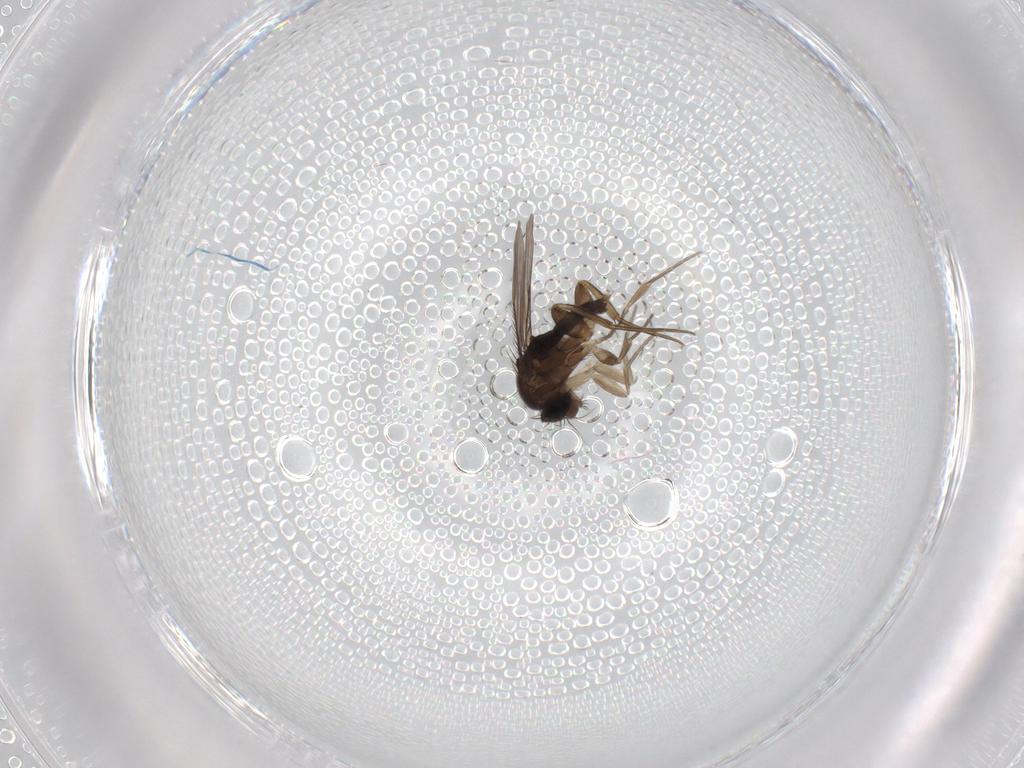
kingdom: Animalia
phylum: Arthropoda
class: Insecta
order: Diptera
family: Phoridae
